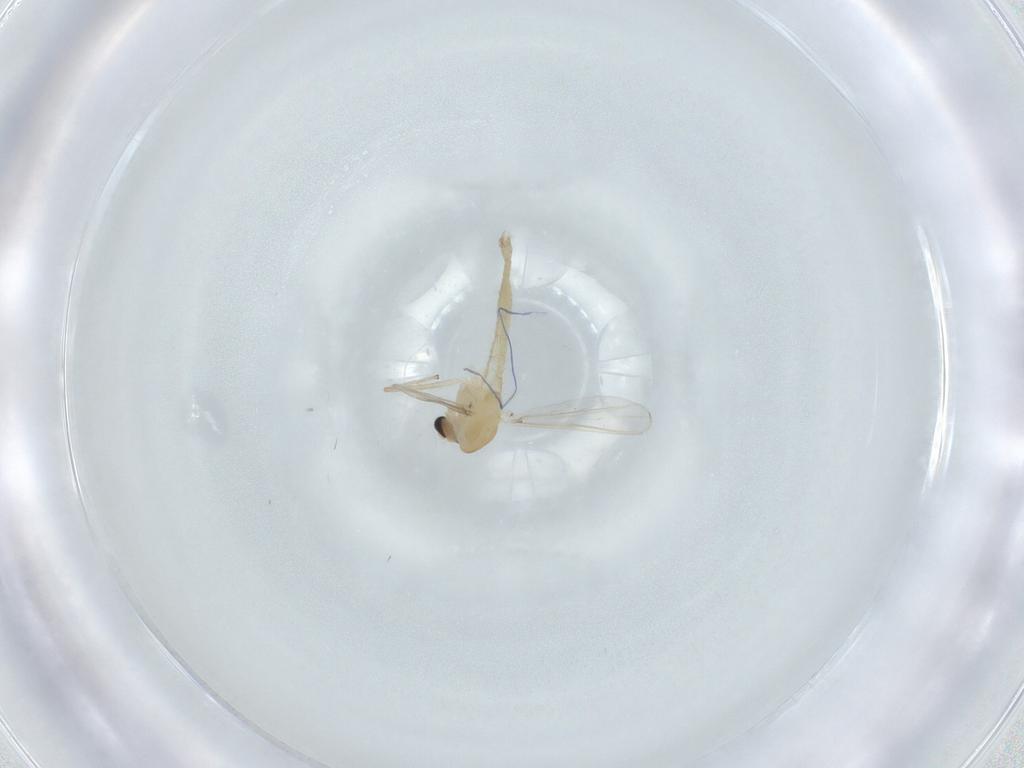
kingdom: Animalia
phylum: Arthropoda
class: Insecta
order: Diptera
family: Chironomidae
